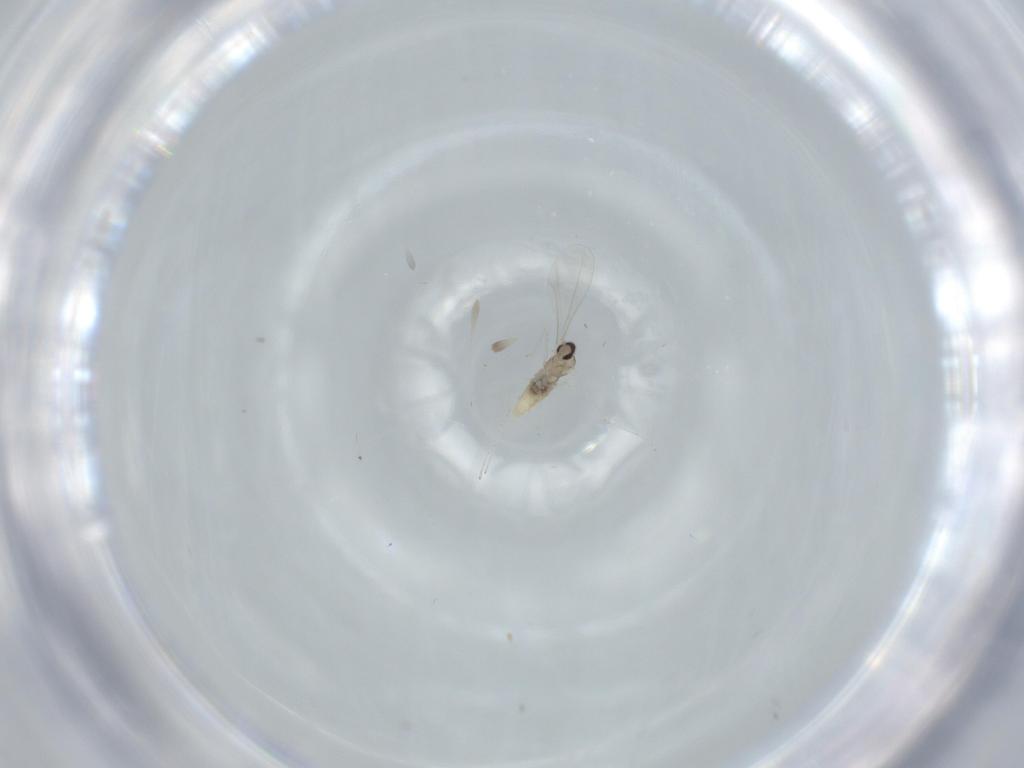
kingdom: Animalia
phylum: Arthropoda
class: Insecta
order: Diptera
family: Cecidomyiidae
